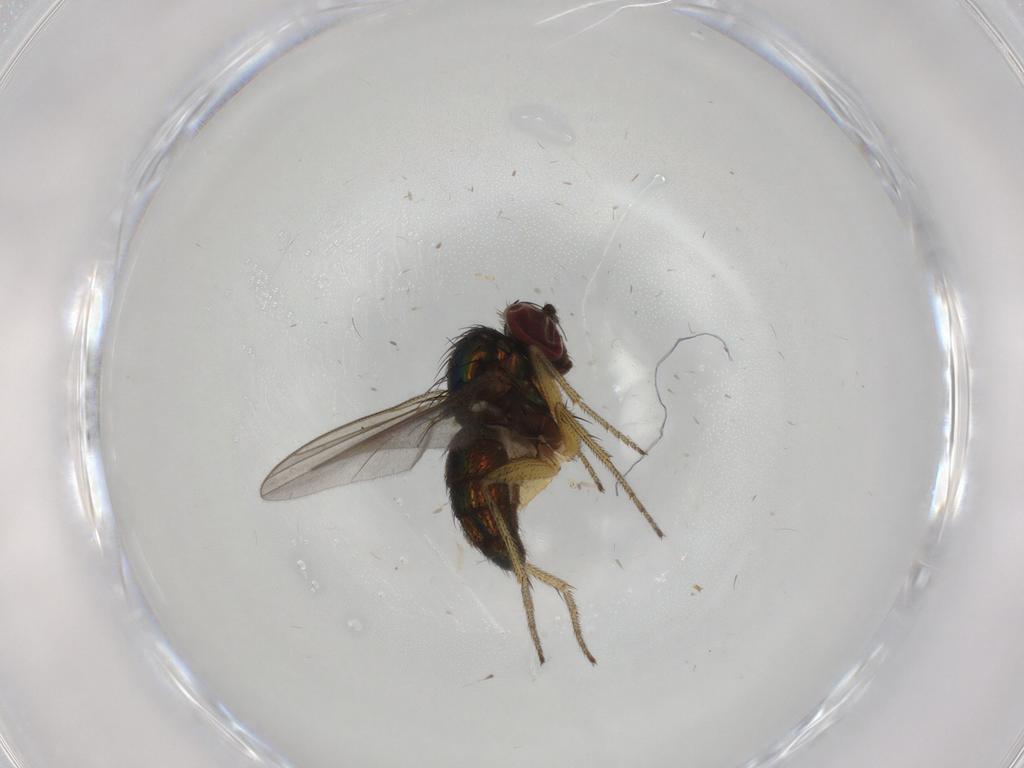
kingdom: Animalia
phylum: Arthropoda
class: Insecta
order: Diptera
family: Ceratopogonidae
